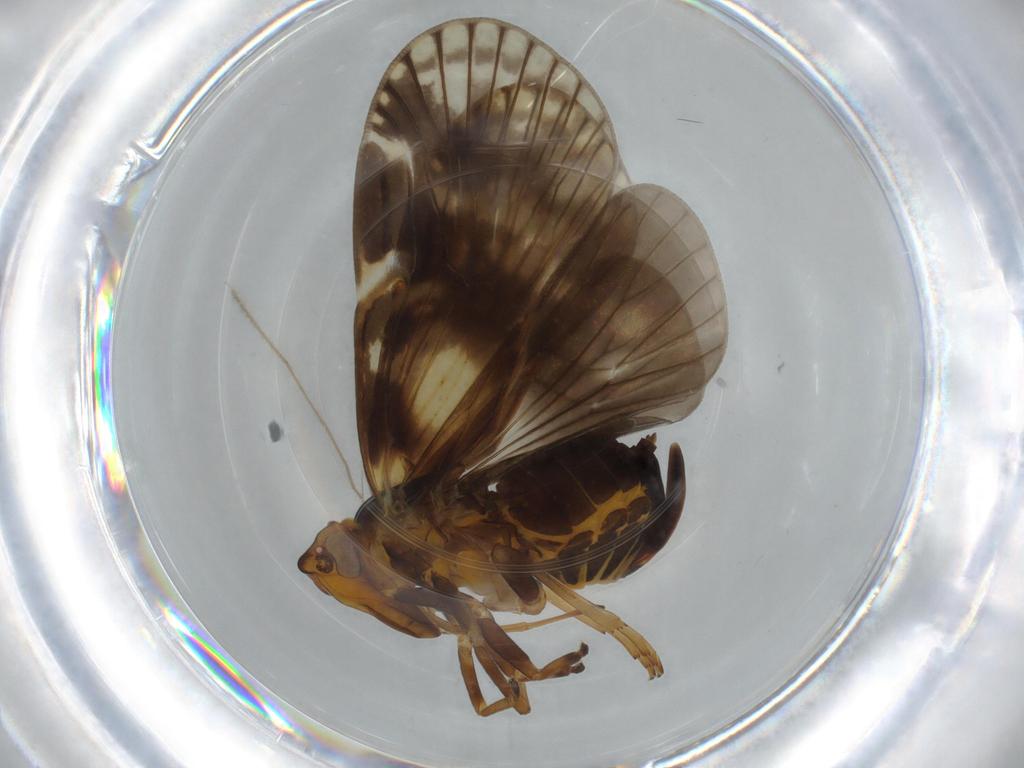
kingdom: Animalia
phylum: Arthropoda
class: Insecta
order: Hemiptera
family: Cixiidae
